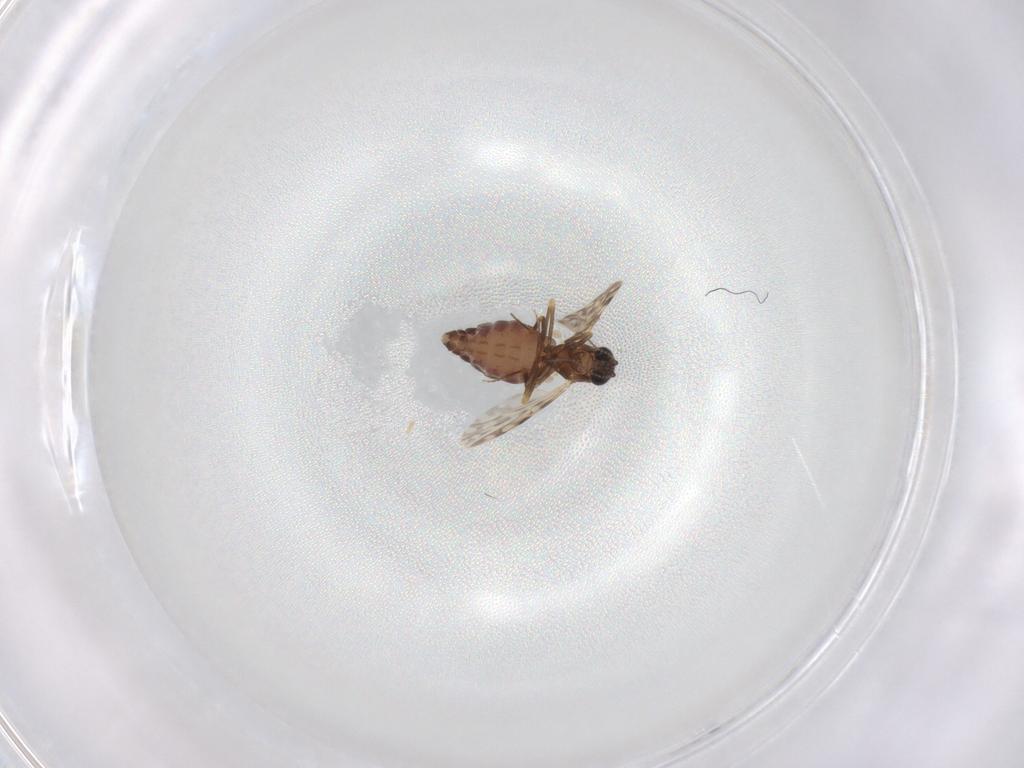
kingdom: Animalia
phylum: Arthropoda
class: Insecta
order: Diptera
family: Ceratopogonidae
